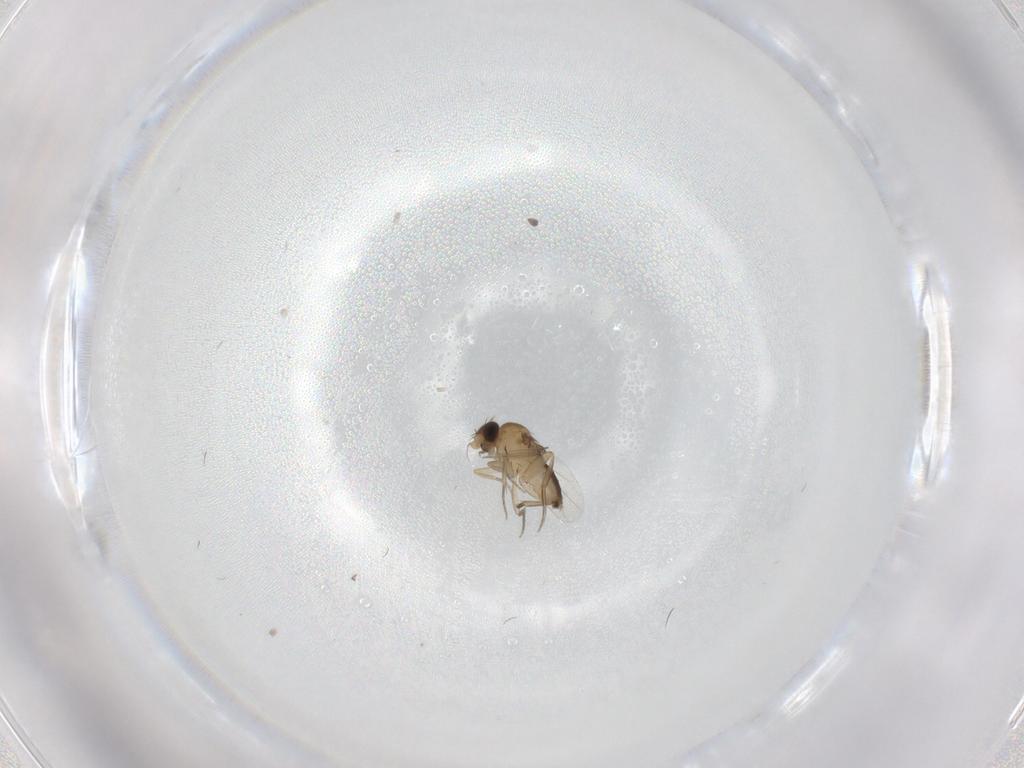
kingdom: Animalia
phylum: Arthropoda
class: Insecta
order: Diptera
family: Phoridae
